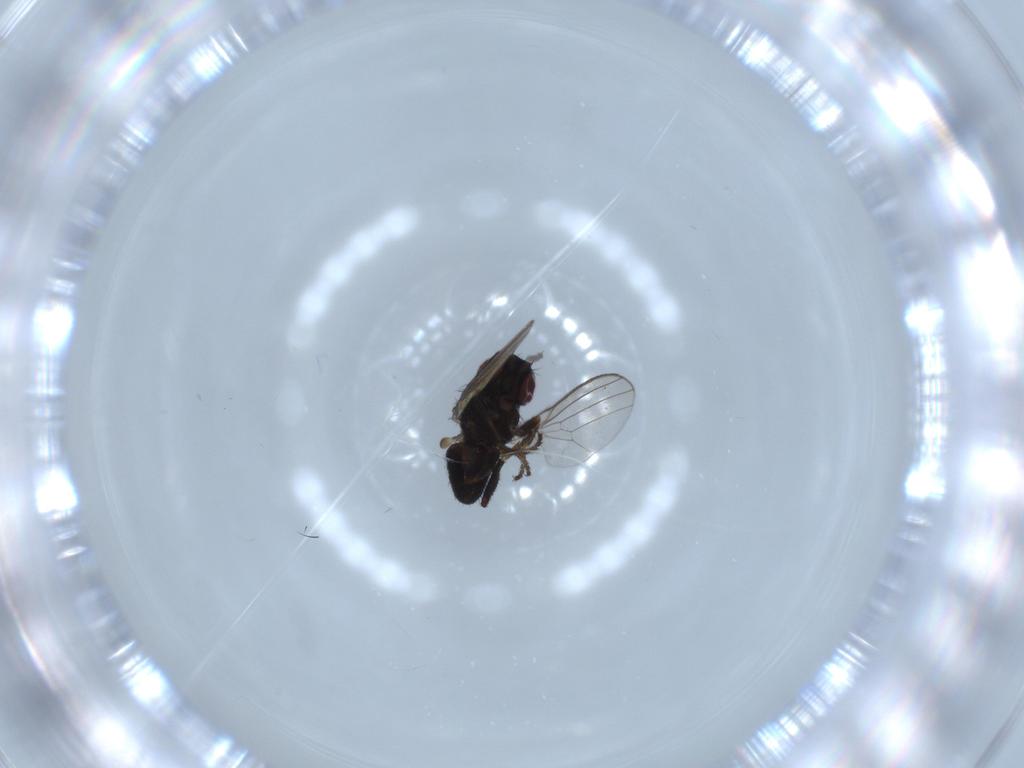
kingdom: Animalia
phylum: Arthropoda
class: Insecta
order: Diptera
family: Milichiidae
